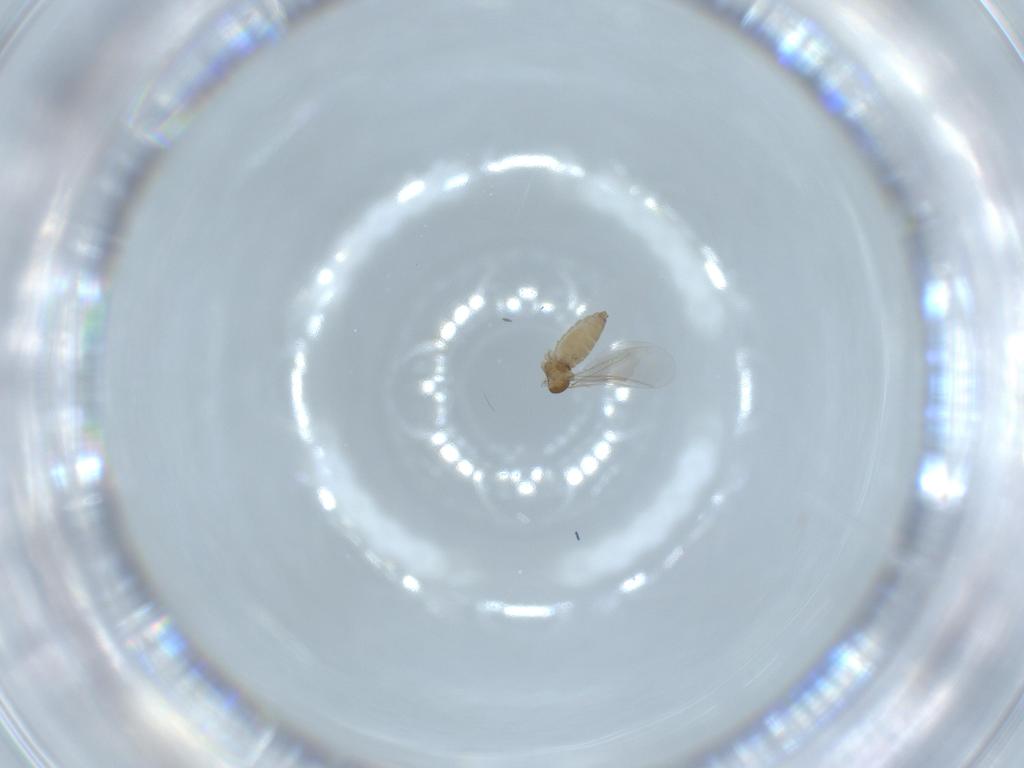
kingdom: Animalia
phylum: Arthropoda
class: Insecta
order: Diptera
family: Cecidomyiidae
